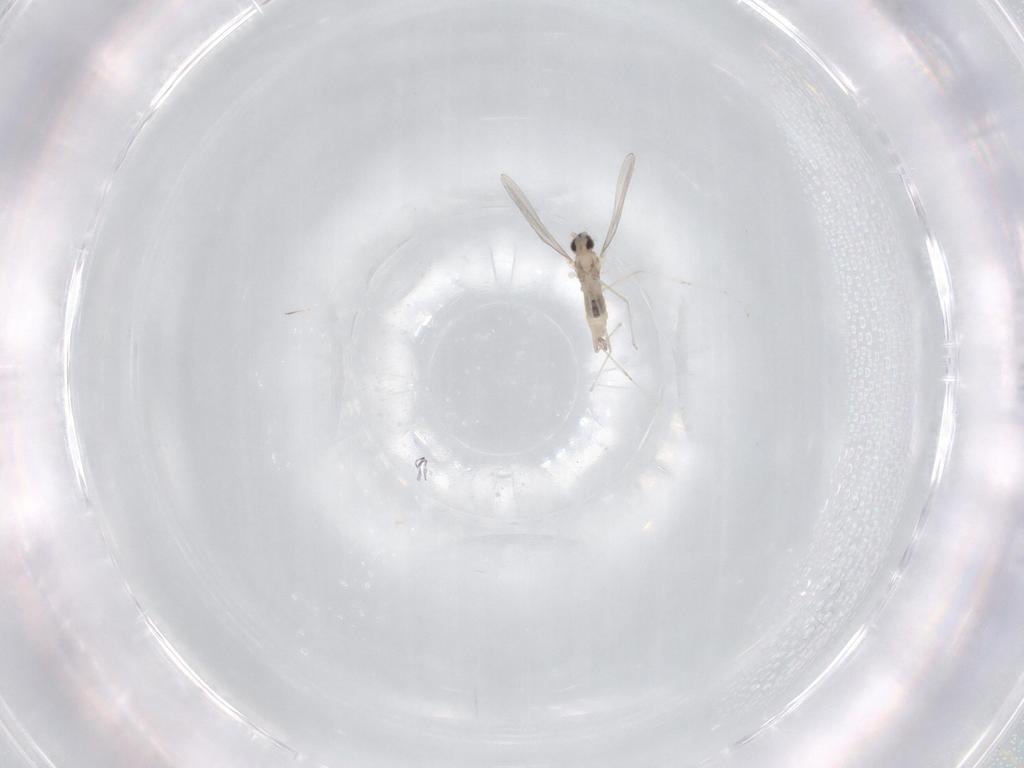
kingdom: Animalia
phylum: Arthropoda
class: Insecta
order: Diptera
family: Cecidomyiidae
